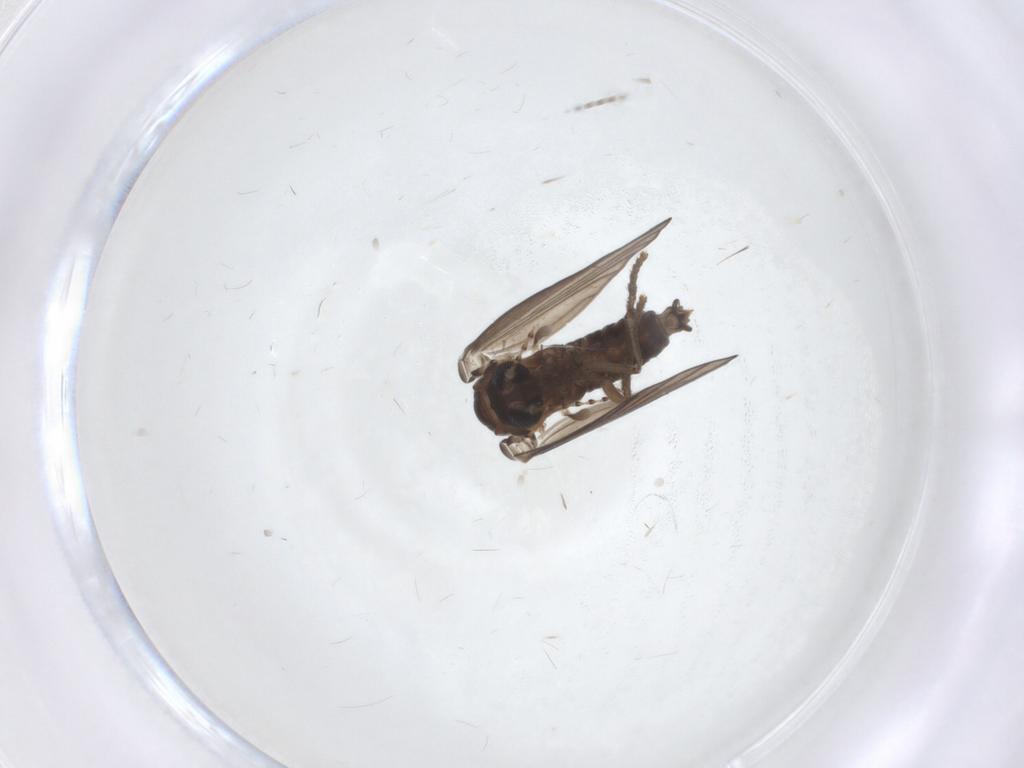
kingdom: Animalia
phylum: Arthropoda
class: Insecta
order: Diptera
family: Psychodidae
